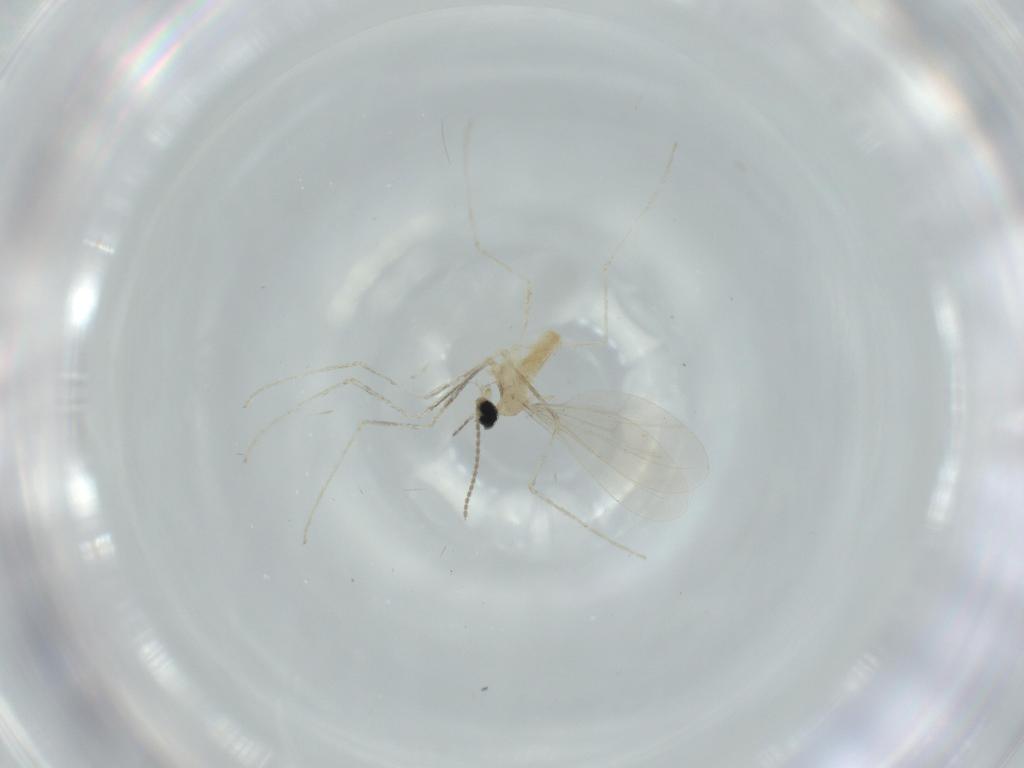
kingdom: Animalia
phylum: Arthropoda
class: Insecta
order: Diptera
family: Cecidomyiidae
